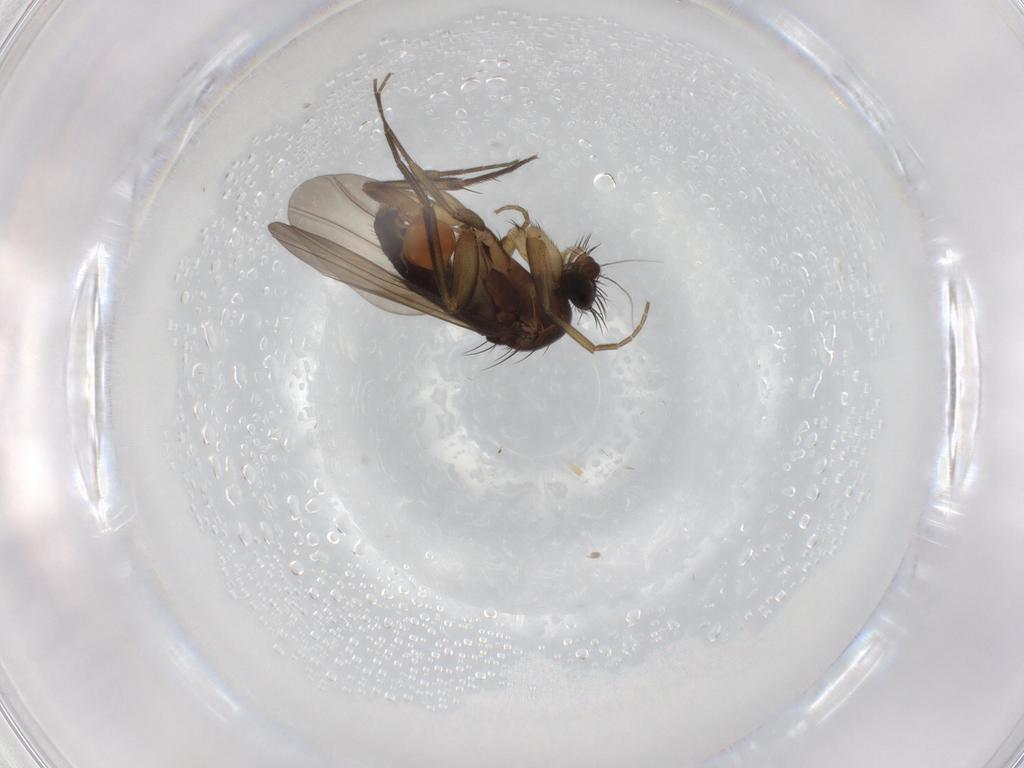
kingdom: Animalia
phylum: Arthropoda
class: Insecta
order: Diptera
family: Phoridae
